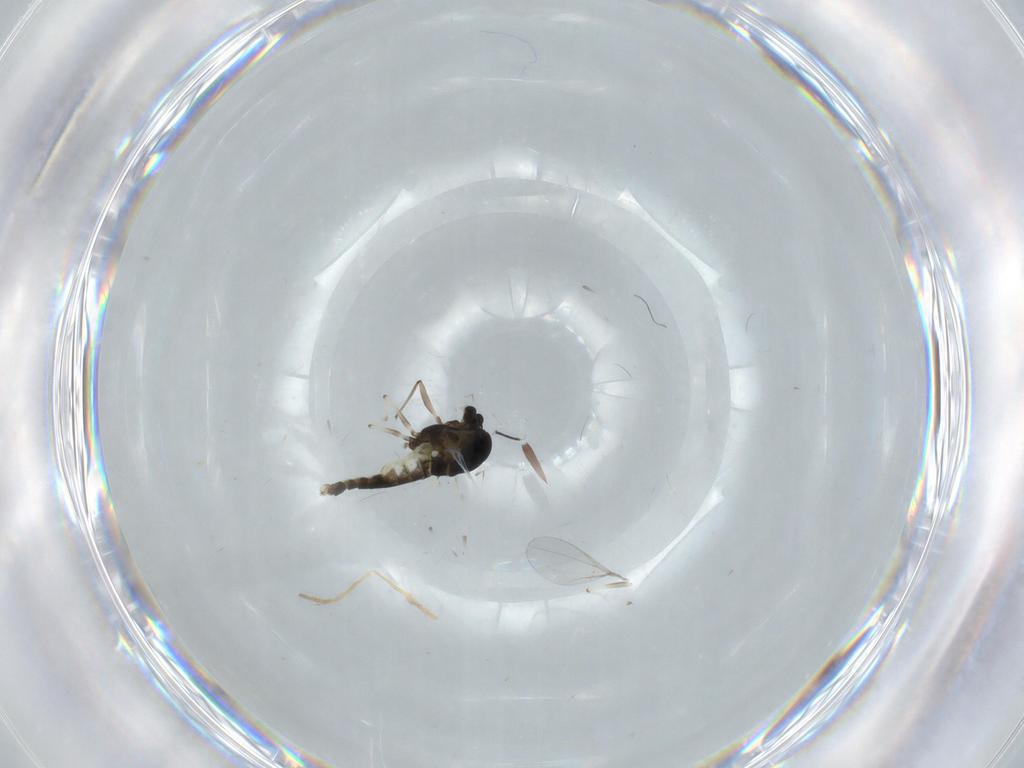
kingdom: Animalia
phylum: Arthropoda
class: Insecta
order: Diptera
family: Chironomidae
